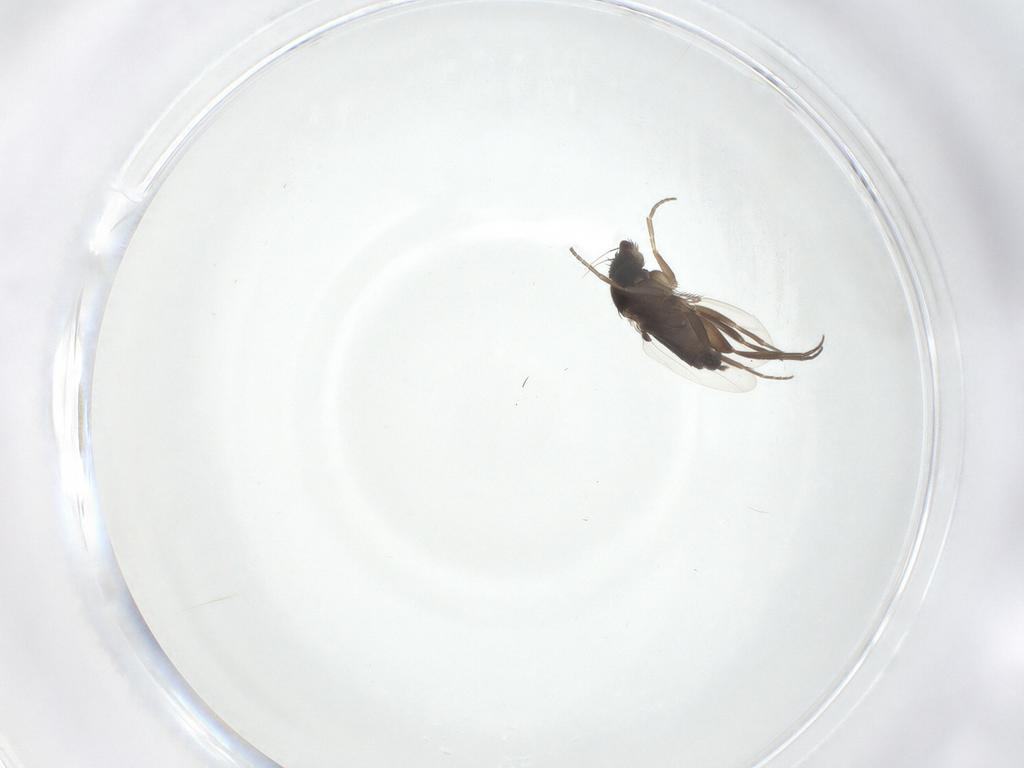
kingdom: Animalia
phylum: Arthropoda
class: Insecta
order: Diptera
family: Phoridae
